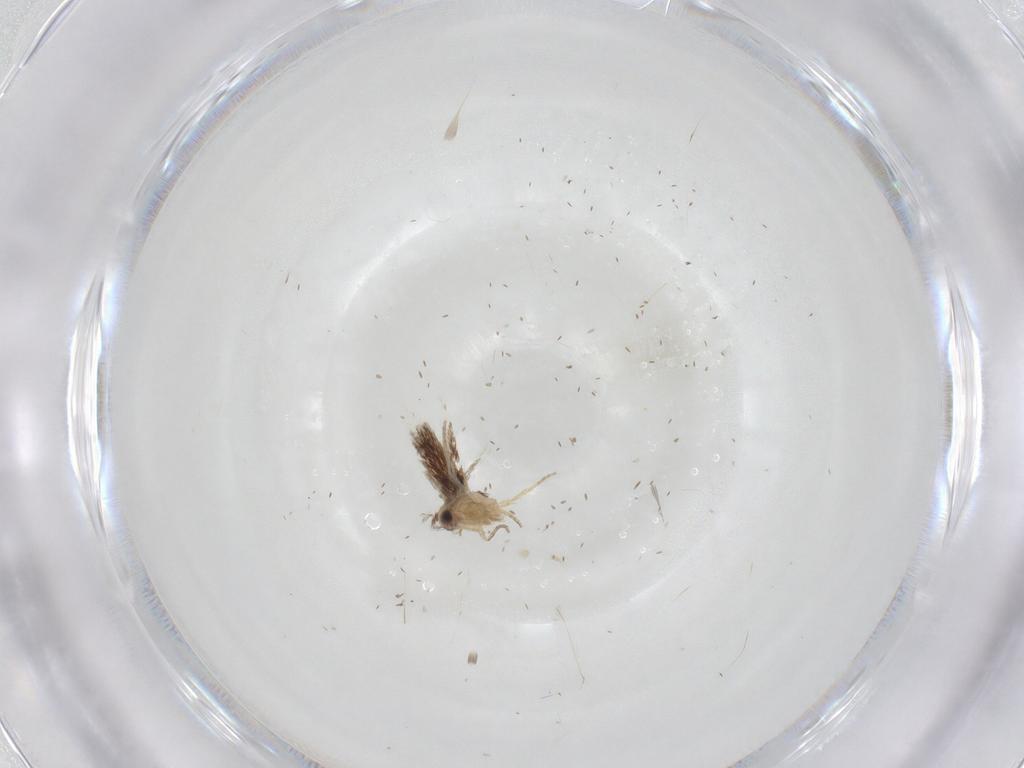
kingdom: Animalia
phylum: Arthropoda
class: Insecta
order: Lepidoptera
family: Nepticulidae
